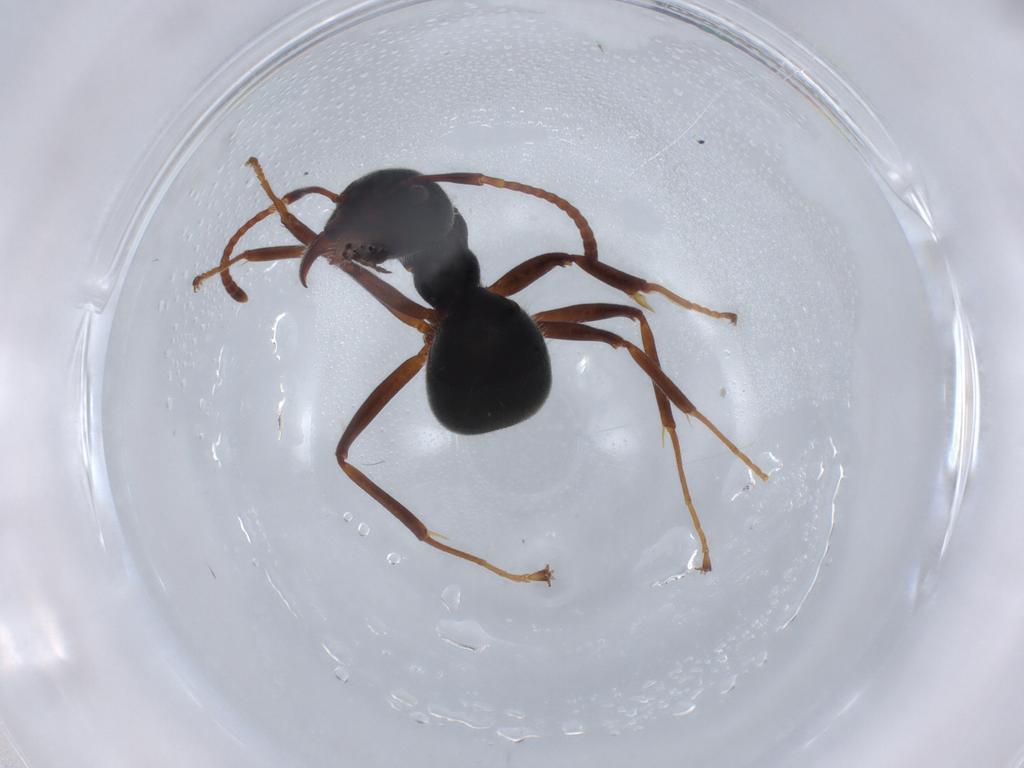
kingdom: Animalia
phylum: Arthropoda
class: Insecta
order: Hymenoptera
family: Formicidae
